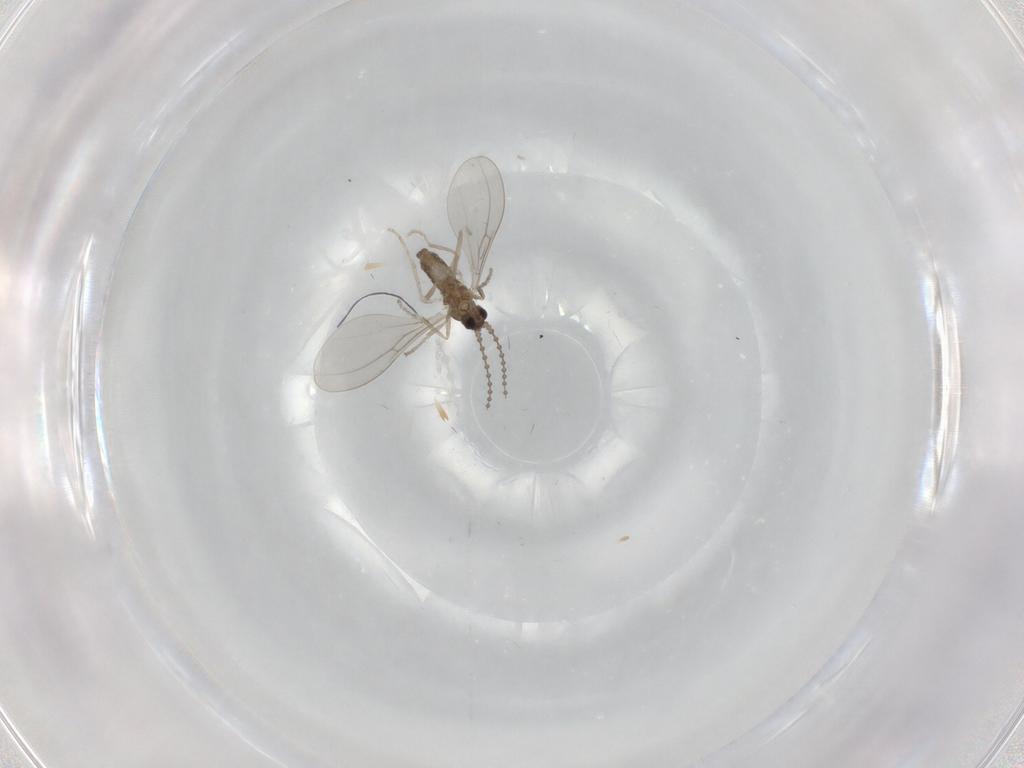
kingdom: Animalia
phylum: Arthropoda
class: Insecta
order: Diptera
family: Cecidomyiidae
